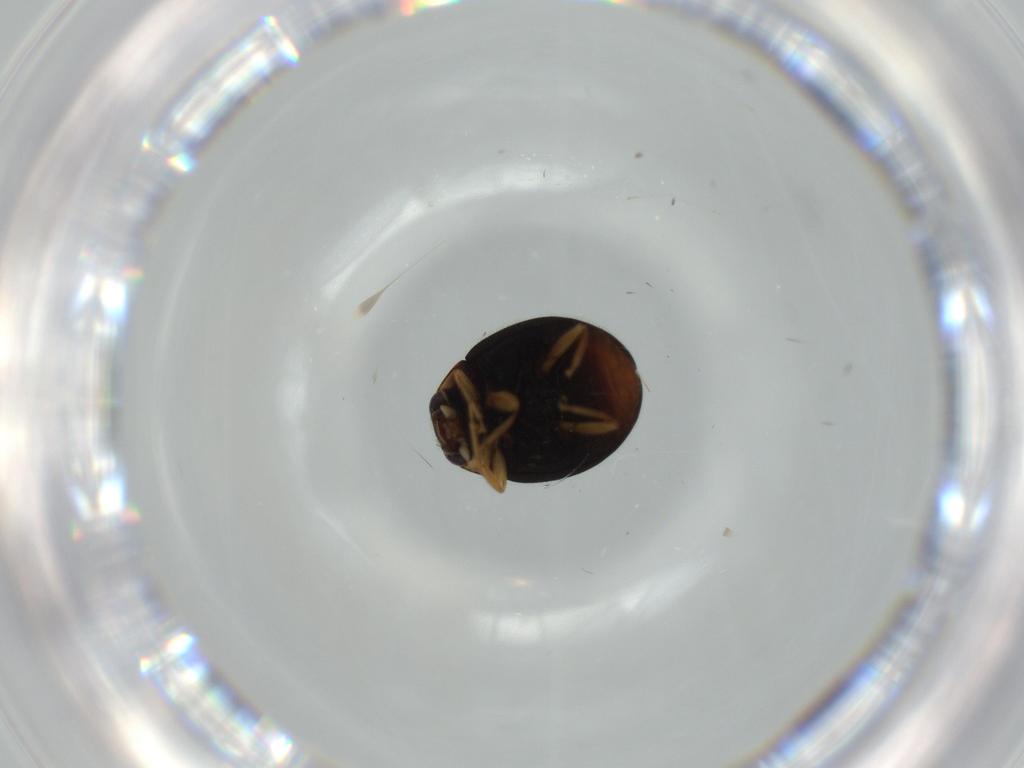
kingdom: Animalia
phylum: Arthropoda
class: Insecta
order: Coleoptera
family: Coccinellidae
